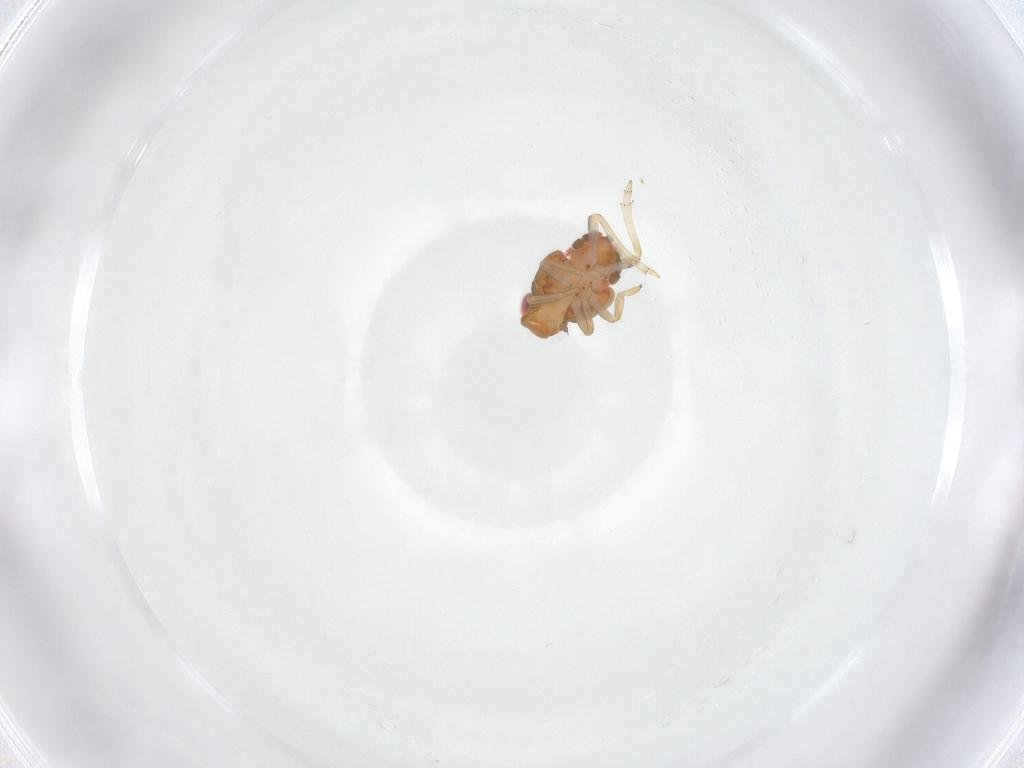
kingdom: Animalia
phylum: Arthropoda
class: Insecta
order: Hemiptera
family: Issidae
